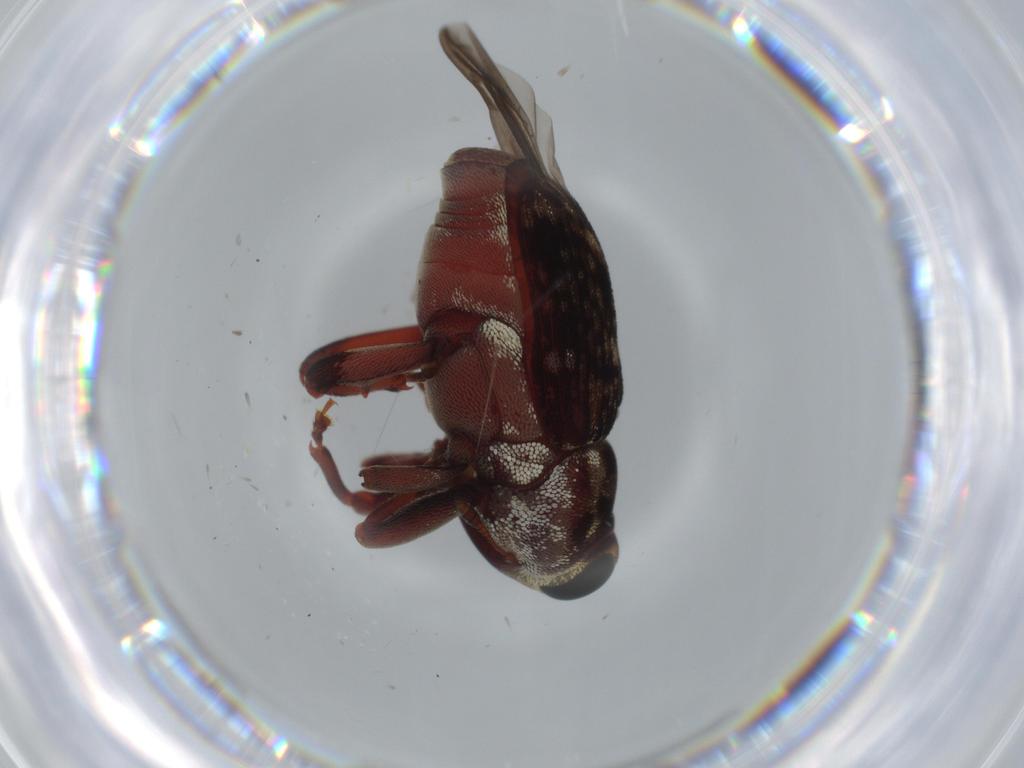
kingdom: Animalia
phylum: Arthropoda
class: Insecta
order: Coleoptera
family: Curculionidae
